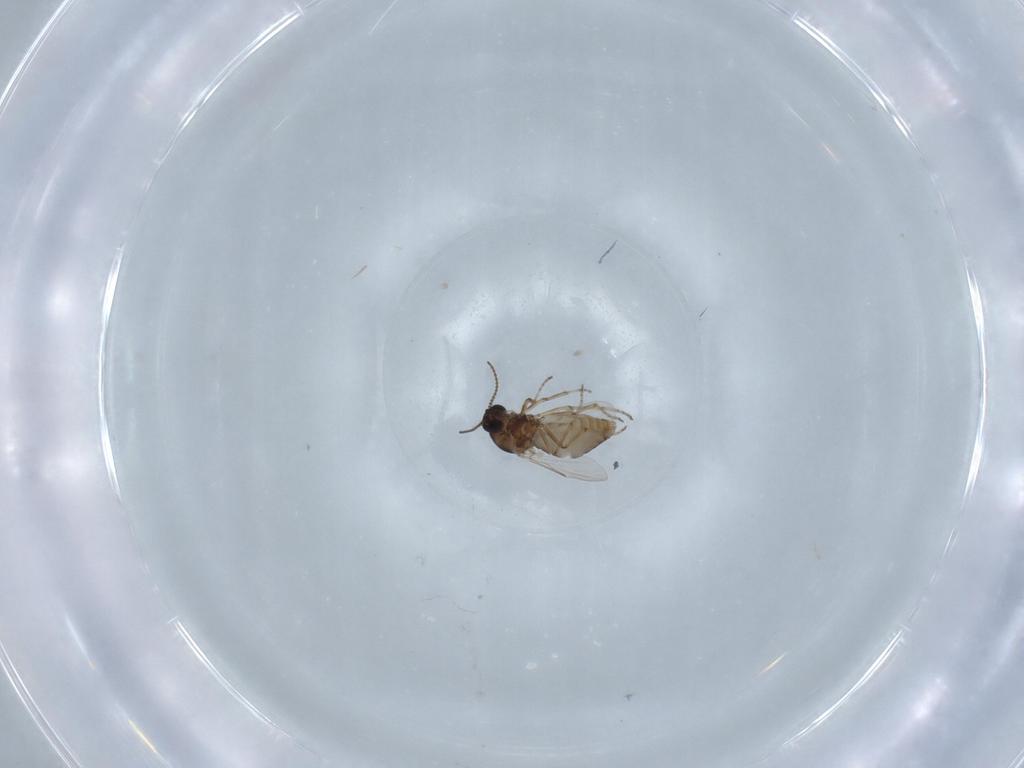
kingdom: Animalia
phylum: Arthropoda
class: Insecta
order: Diptera
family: Ceratopogonidae
